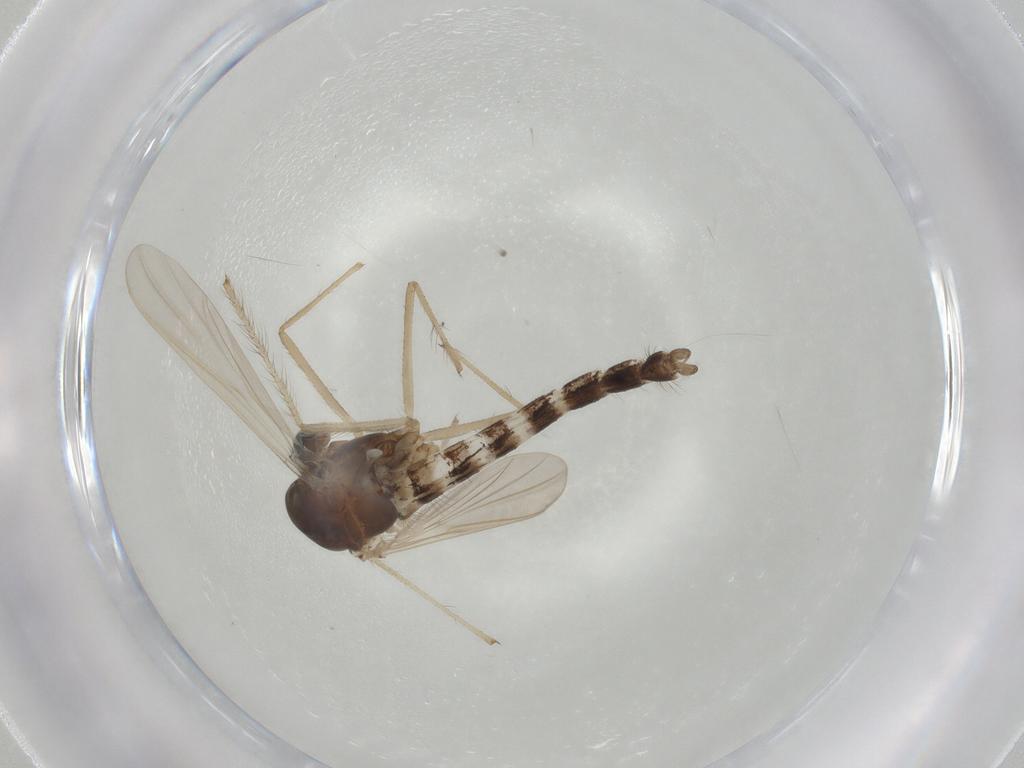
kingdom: Animalia
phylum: Arthropoda
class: Insecta
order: Diptera
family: Chironomidae
